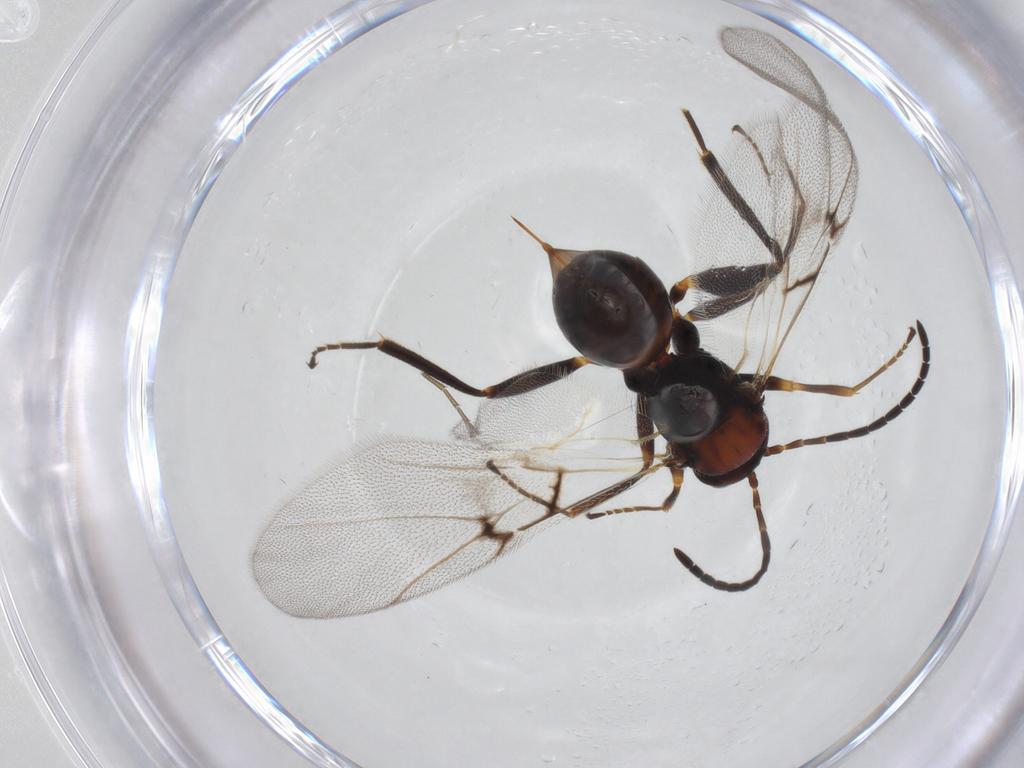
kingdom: Animalia
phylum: Arthropoda
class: Insecta
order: Hymenoptera
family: Cynipidae
